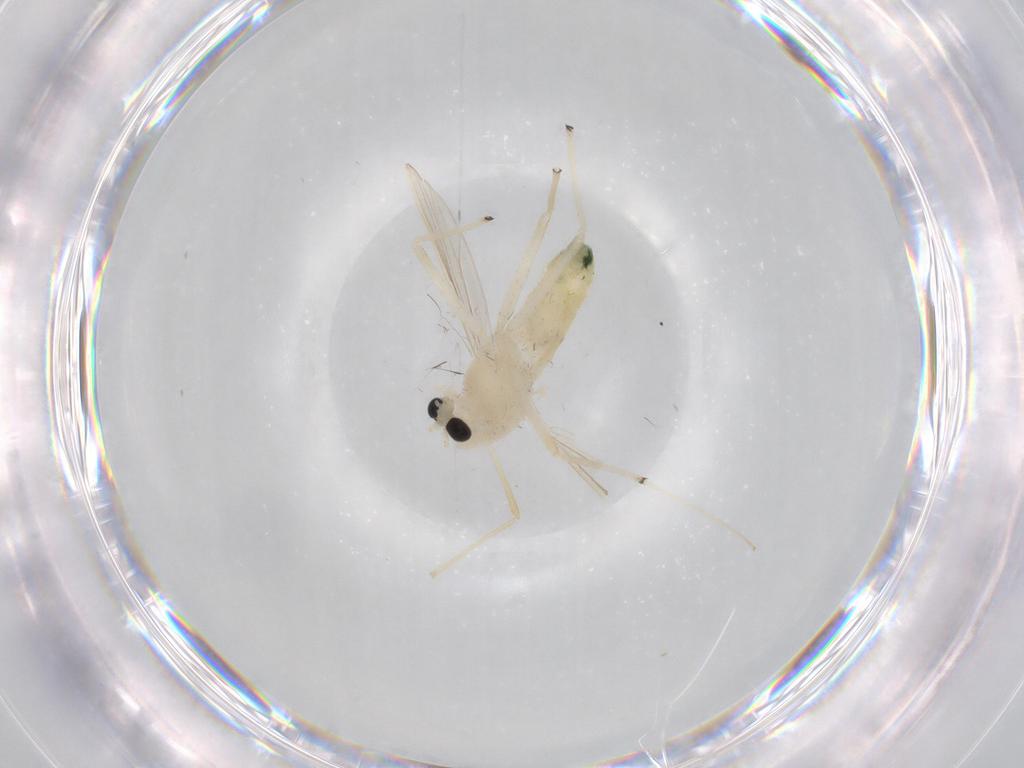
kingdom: Animalia
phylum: Arthropoda
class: Insecta
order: Diptera
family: Chironomidae
